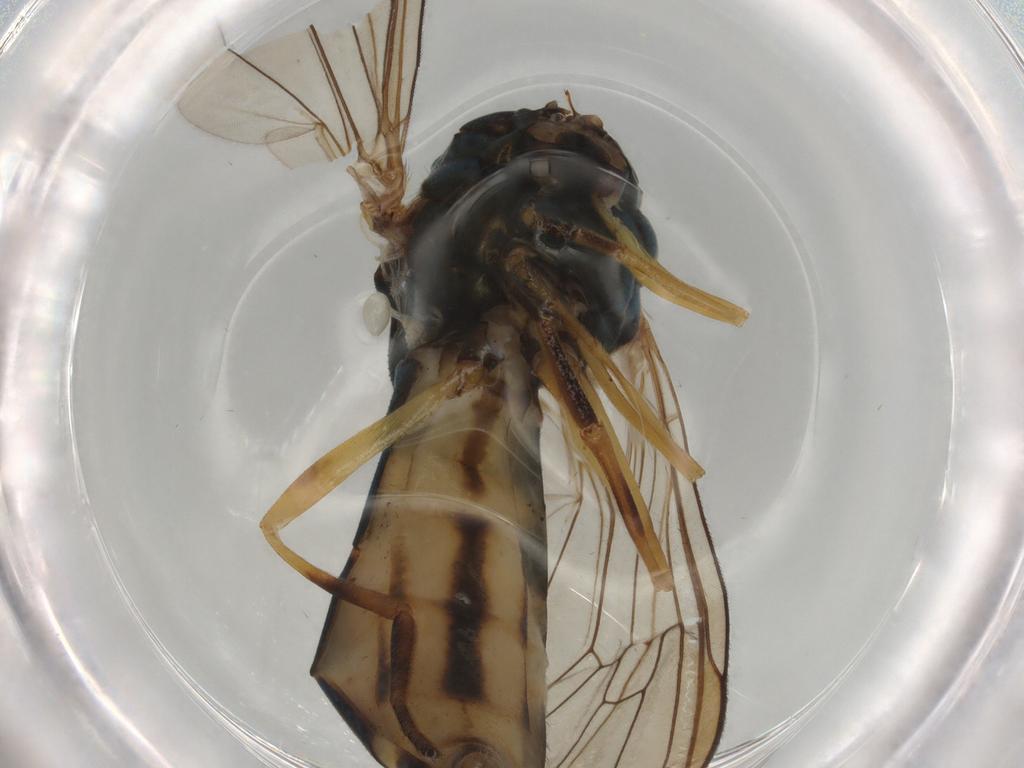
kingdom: Animalia
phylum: Arthropoda
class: Insecta
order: Diptera
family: Syrphidae
